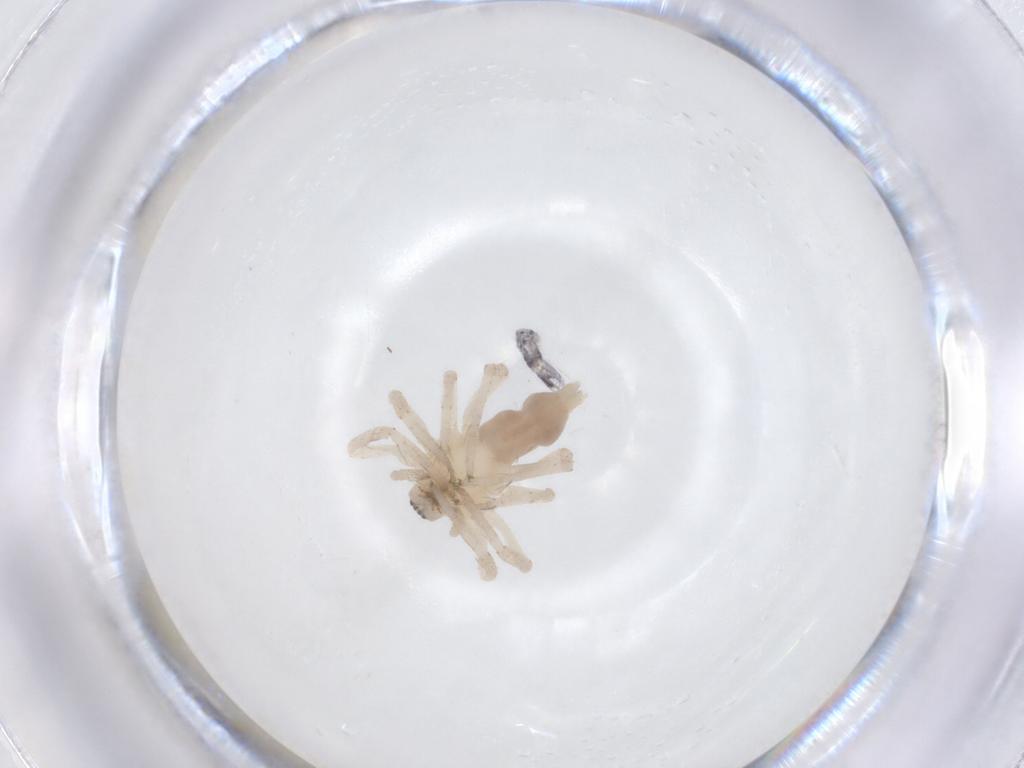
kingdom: Animalia
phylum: Arthropoda
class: Arachnida
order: Araneae
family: Anyphaenidae
